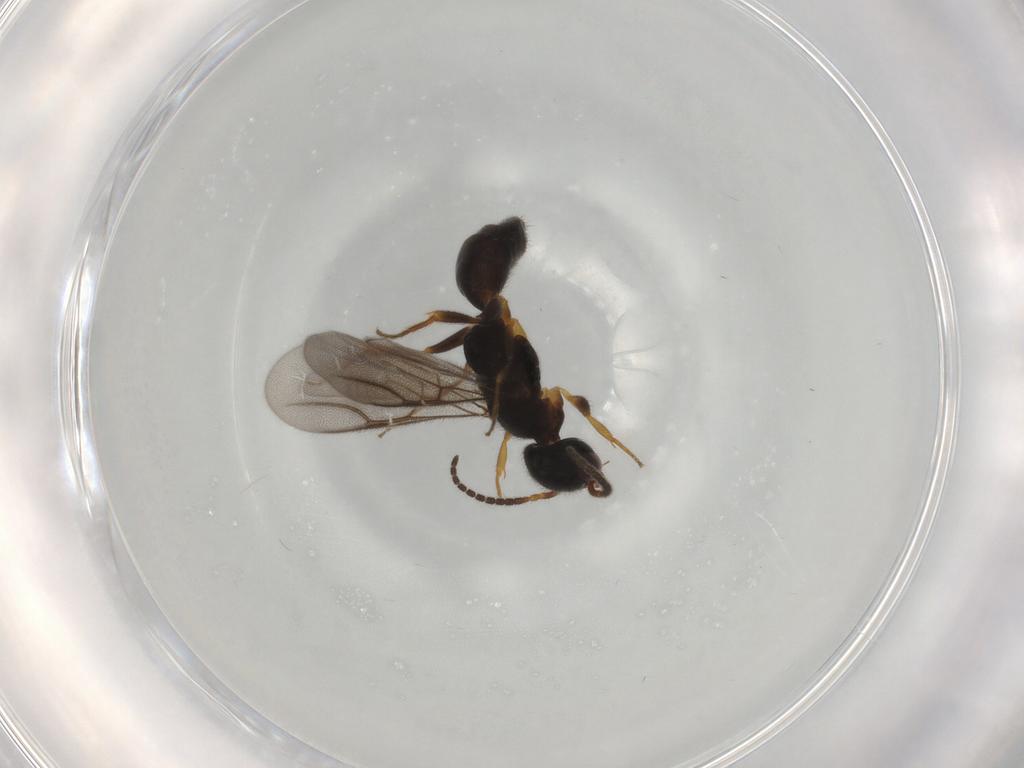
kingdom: Animalia
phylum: Arthropoda
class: Insecta
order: Hymenoptera
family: Bethylidae
